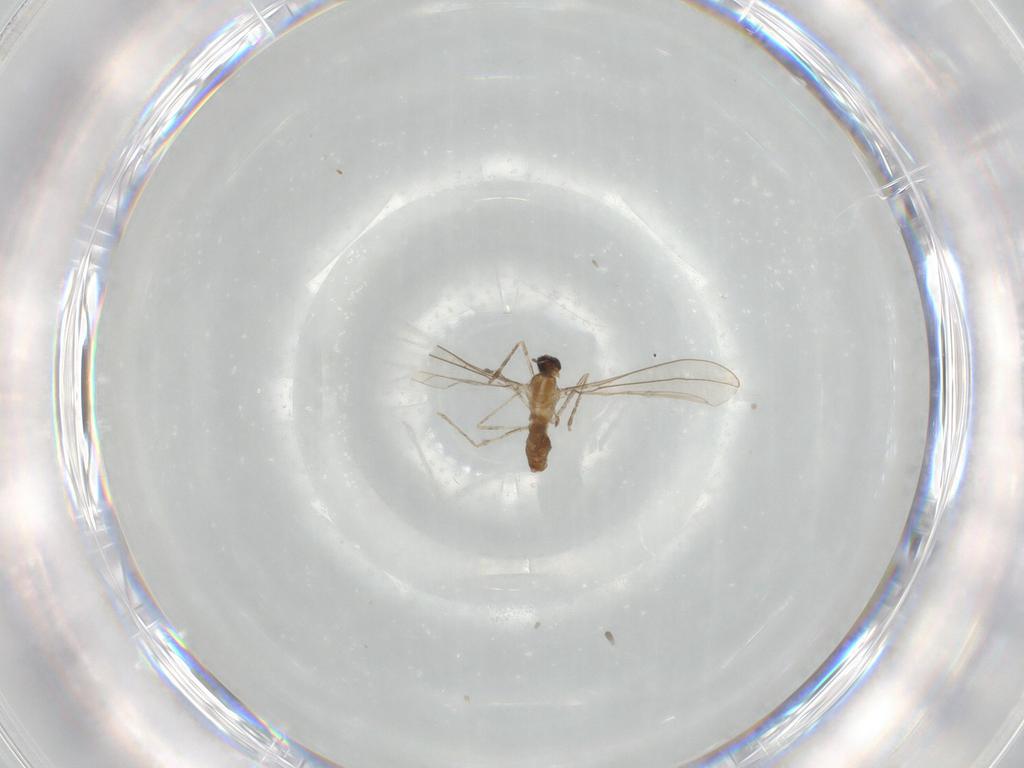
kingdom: Animalia
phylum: Arthropoda
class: Insecta
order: Diptera
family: Cecidomyiidae
